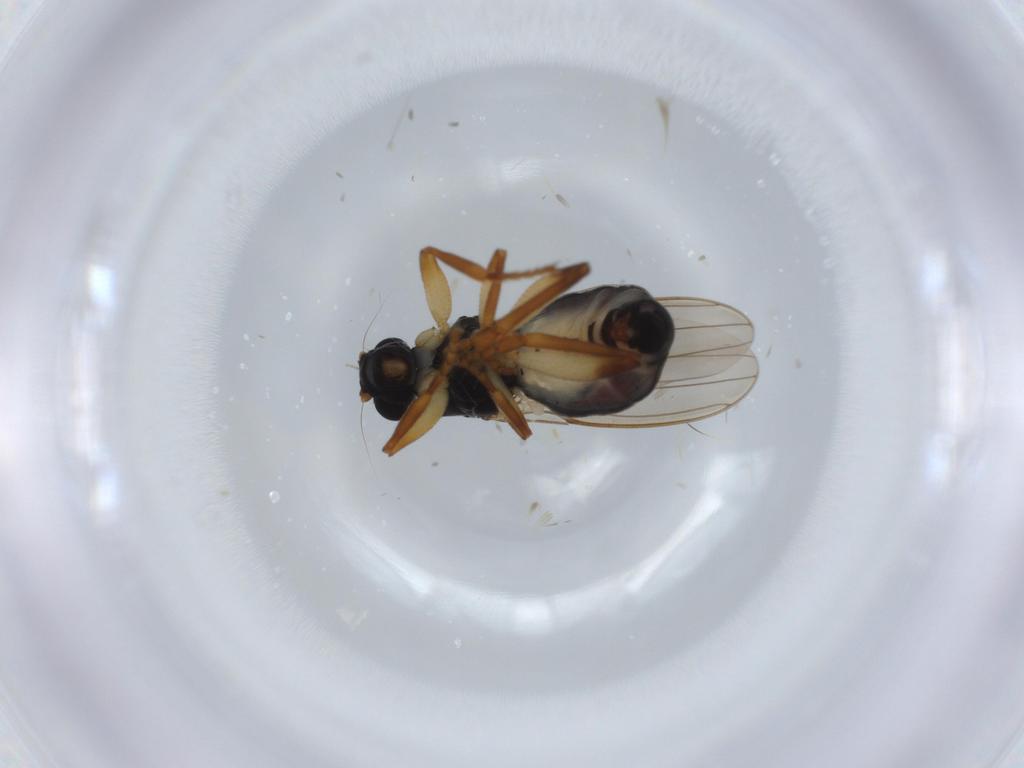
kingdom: Animalia
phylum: Arthropoda
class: Insecta
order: Diptera
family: Sphaeroceridae
